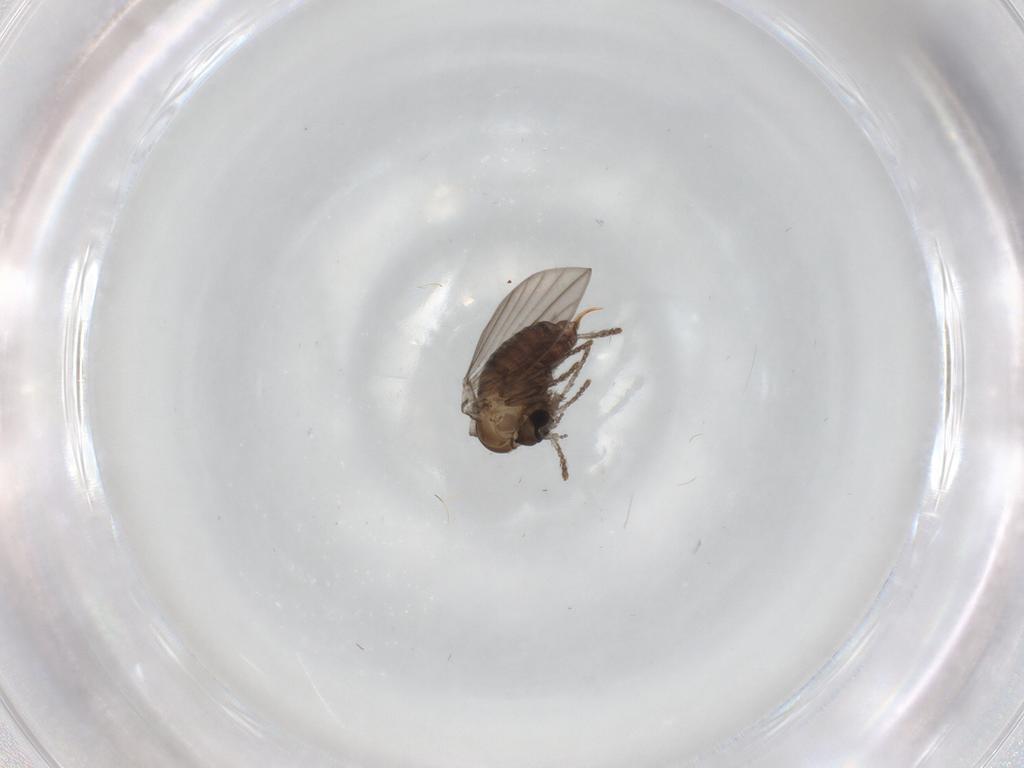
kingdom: Animalia
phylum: Arthropoda
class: Insecta
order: Diptera
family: Psychodidae
